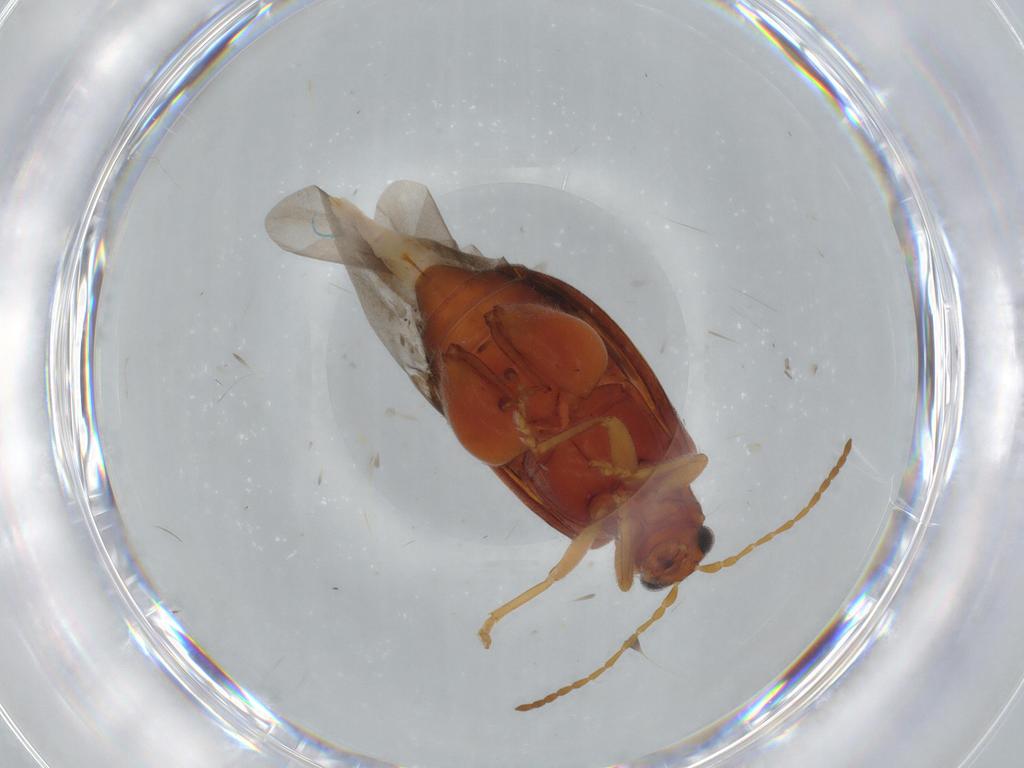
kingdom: Animalia
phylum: Arthropoda
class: Insecta
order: Coleoptera
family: Chrysomelidae
